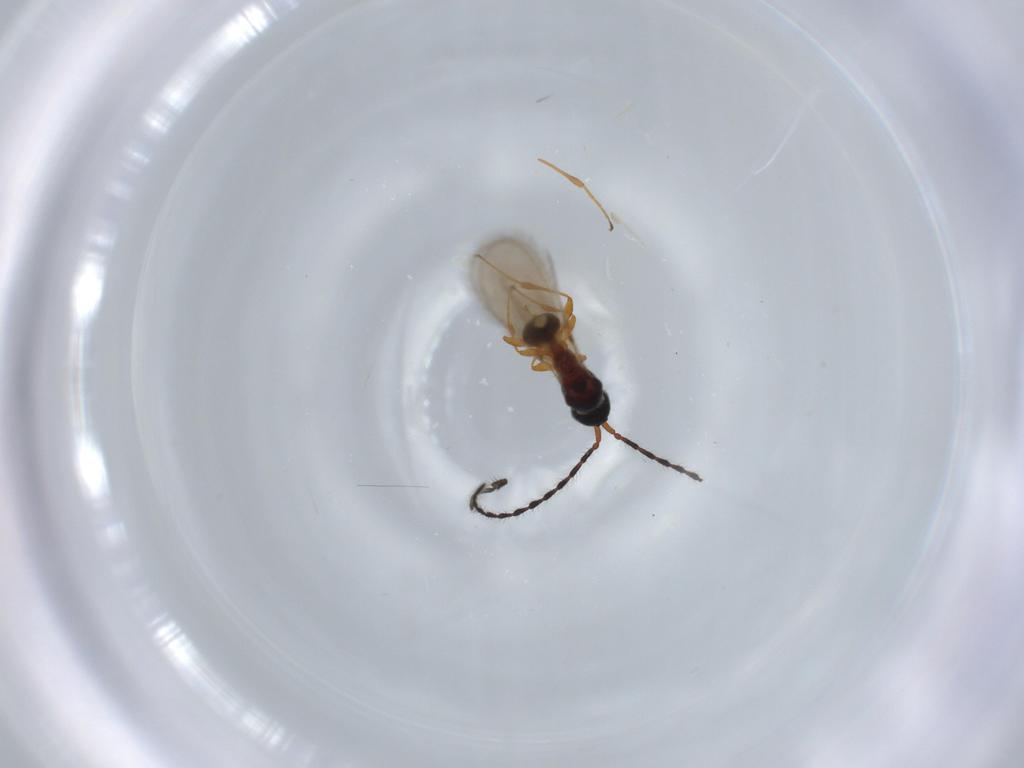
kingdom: Animalia
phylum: Arthropoda
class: Insecta
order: Hymenoptera
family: Diapriidae
